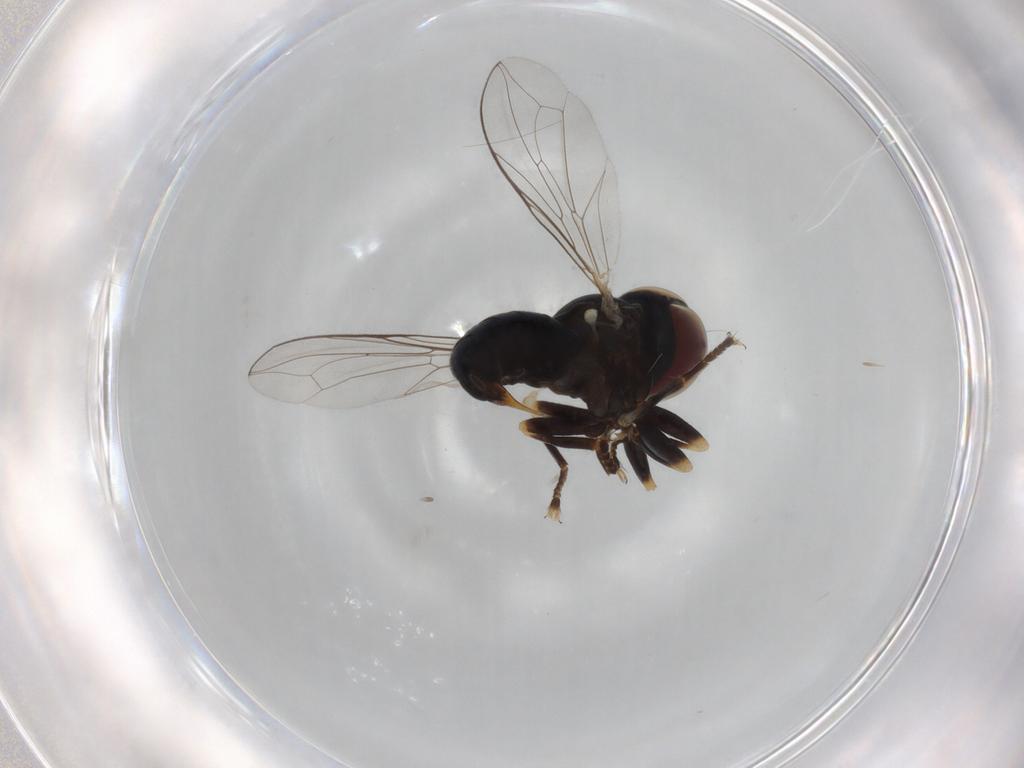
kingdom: Animalia
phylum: Arthropoda
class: Insecta
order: Diptera
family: Pipunculidae
